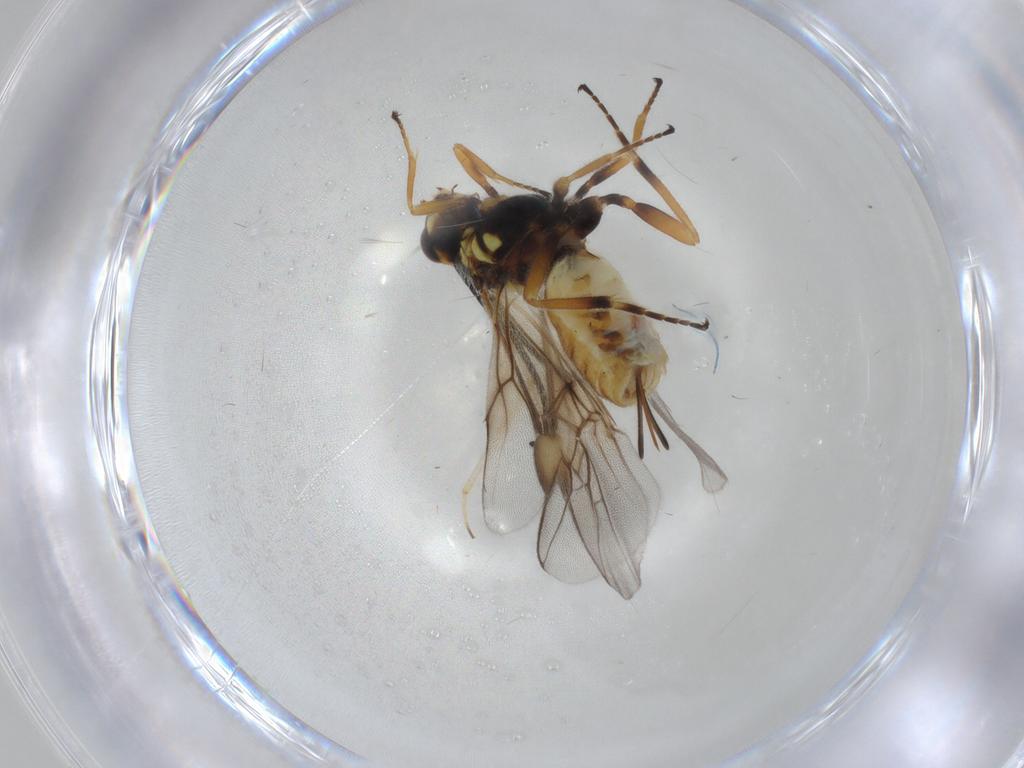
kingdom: Animalia
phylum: Arthropoda
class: Insecta
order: Hymenoptera
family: Braconidae
